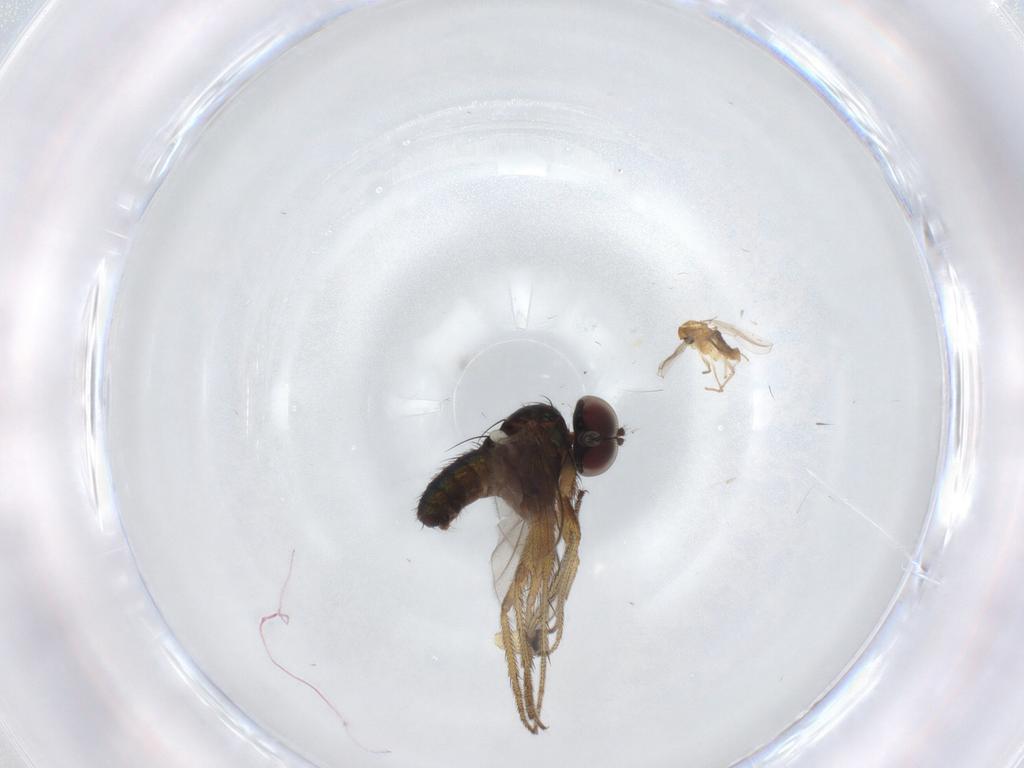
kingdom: Animalia
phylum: Arthropoda
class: Insecta
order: Diptera
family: Chironomidae
